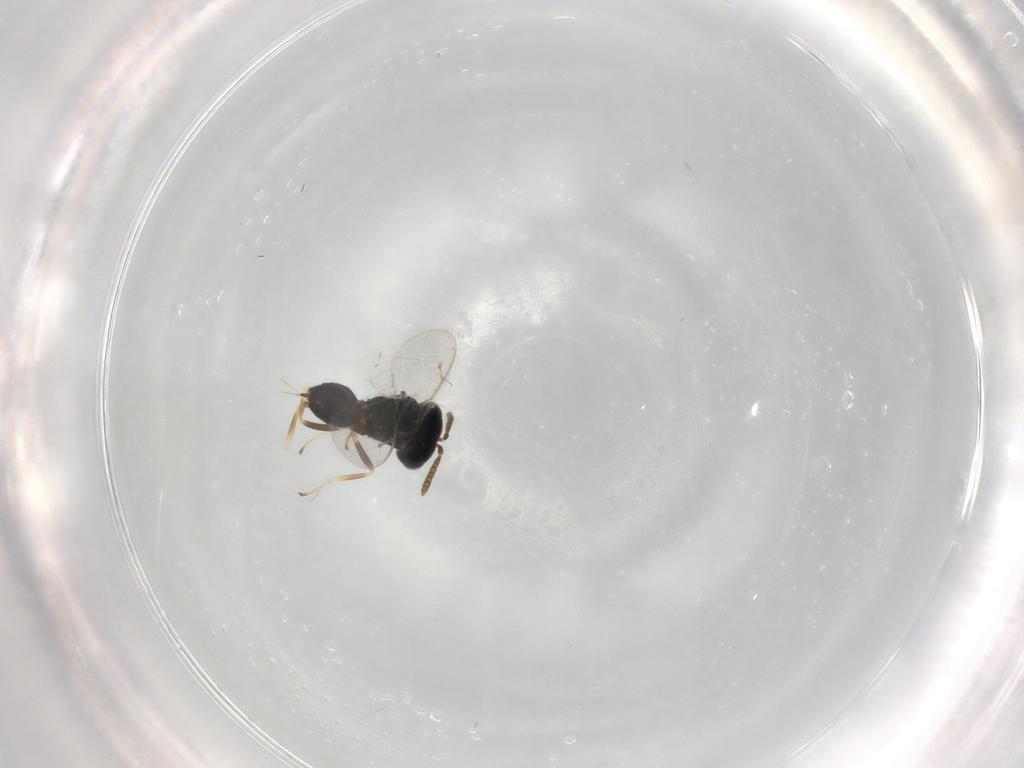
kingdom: Animalia
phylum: Arthropoda
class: Insecta
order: Hymenoptera
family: Pteromalidae
